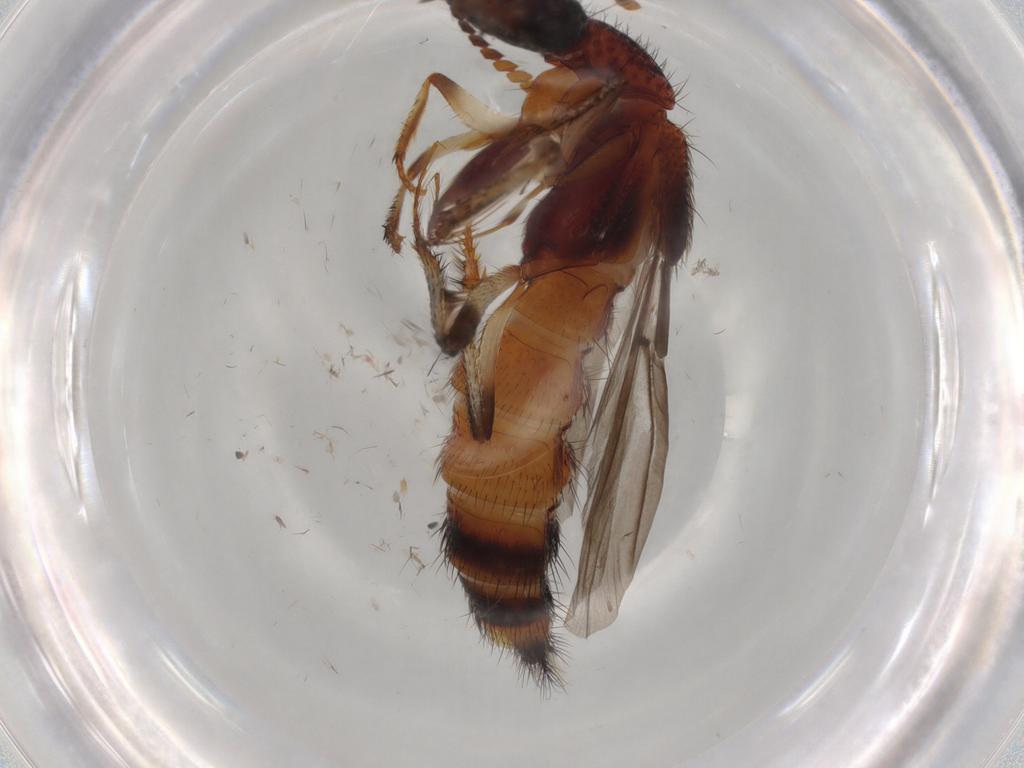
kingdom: Animalia
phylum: Arthropoda
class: Insecta
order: Coleoptera
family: Staphylinidae
